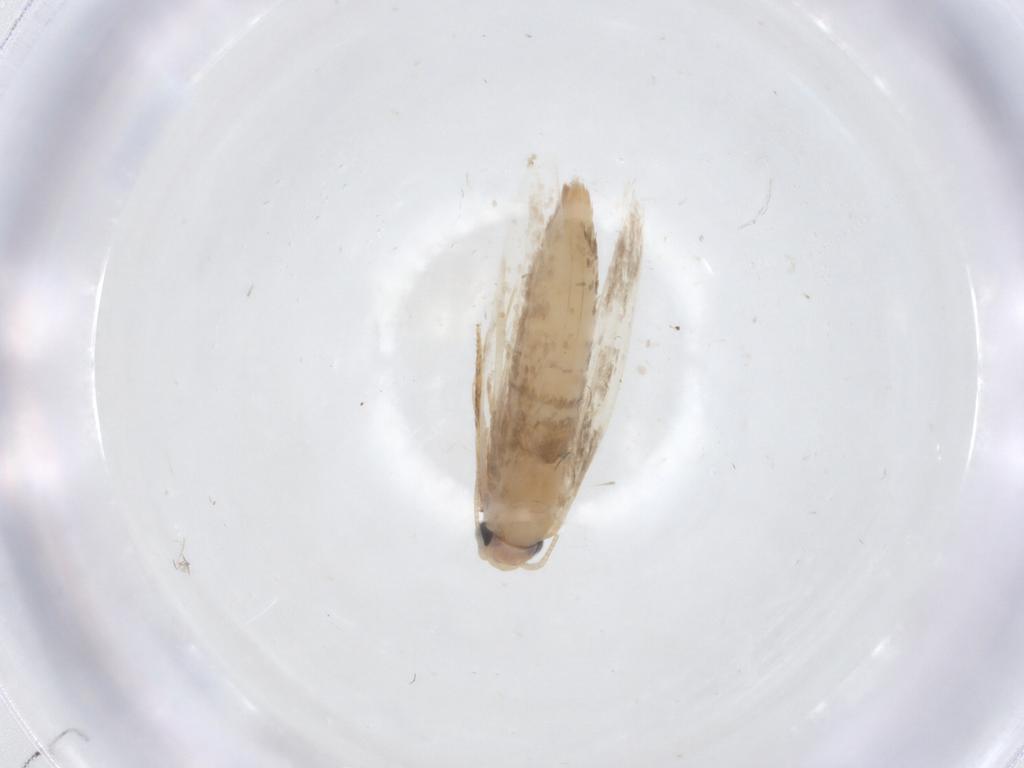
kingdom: Animalia
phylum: Arthropoda
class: Insecta
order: Lepidoptera
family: Tineidae
